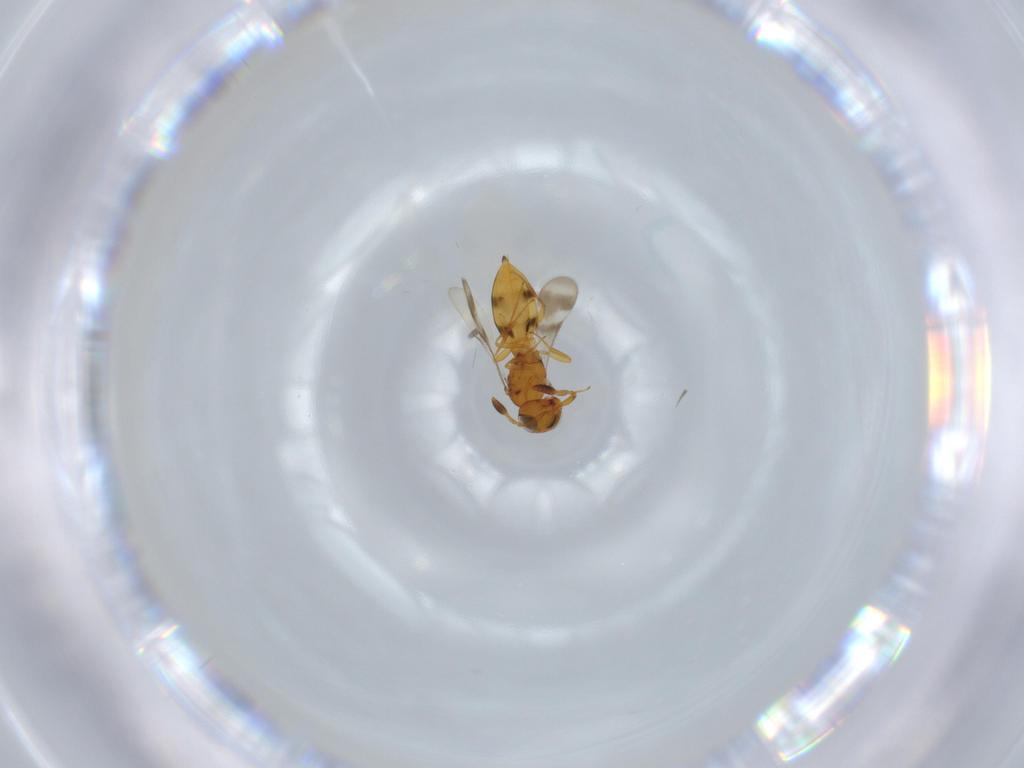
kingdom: Animalia
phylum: Arthropoda
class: Insecta
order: Hymenoptera
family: Scelionidae
